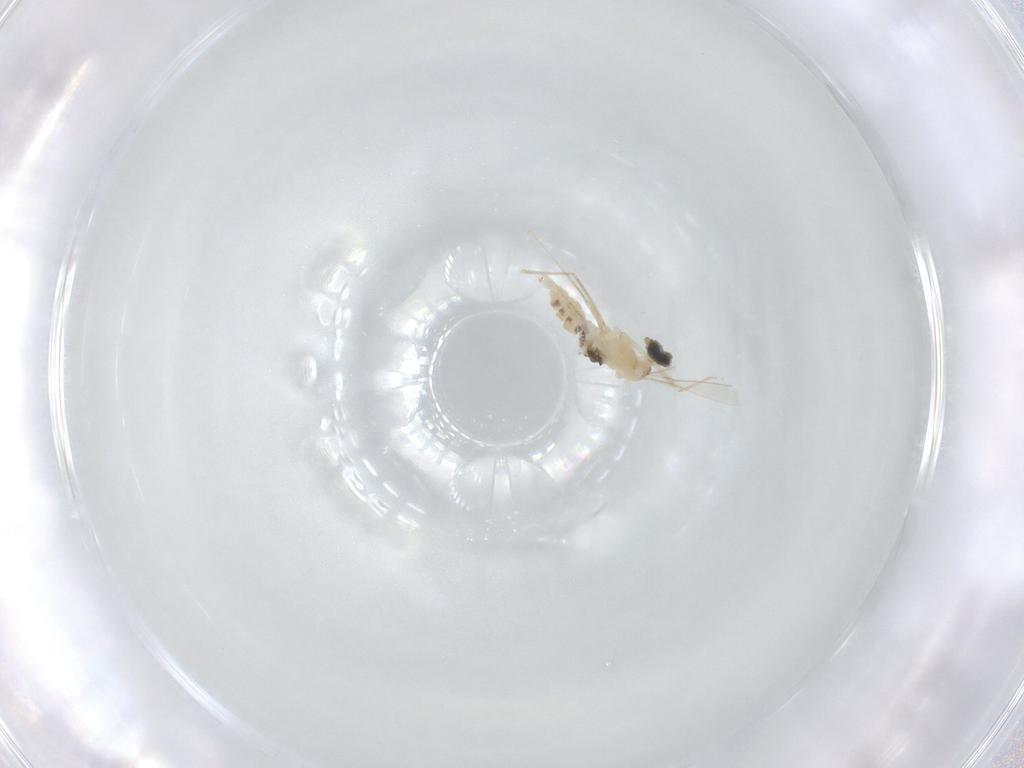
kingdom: Animalia
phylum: Arthropoda
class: Insecta
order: Diptera
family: Cecidomyiidae
